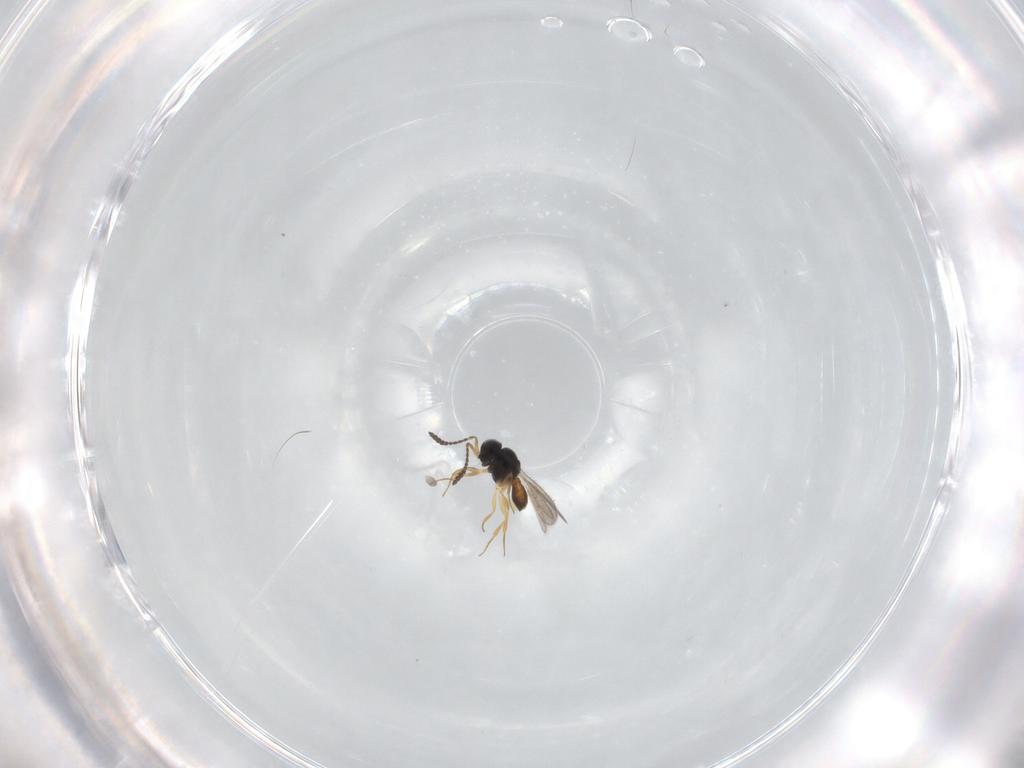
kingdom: Animalia
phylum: Arthropoda
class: Insecta
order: Hymenoptera
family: Scelionidae
